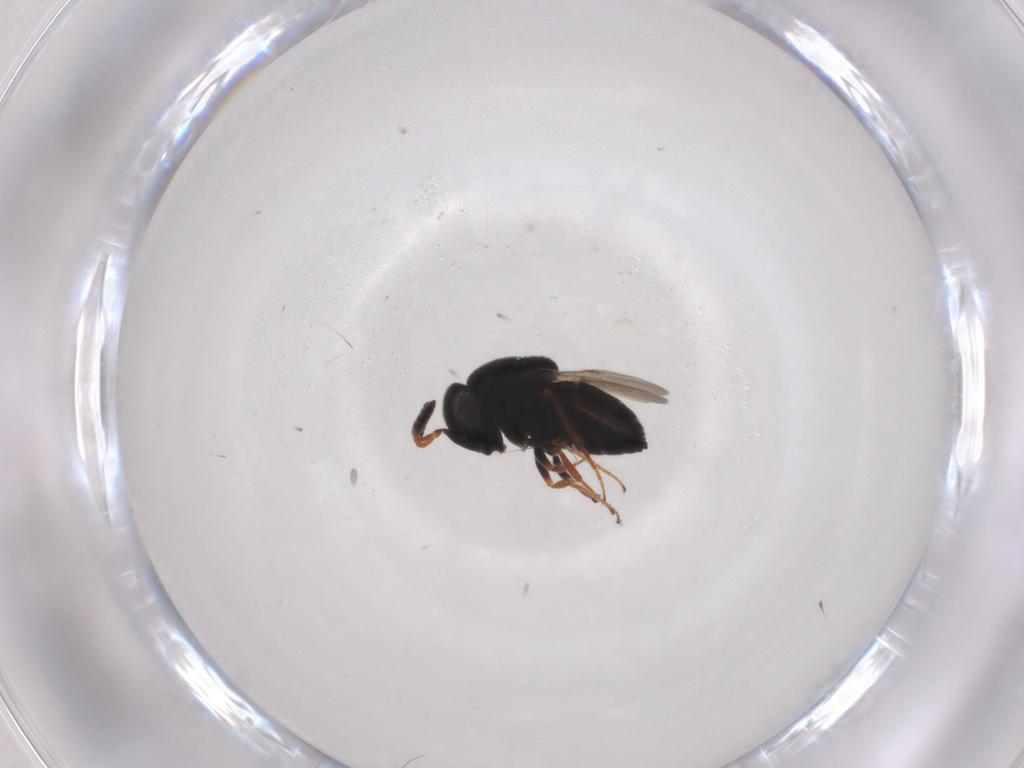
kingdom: Animalia
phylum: Arthropoda
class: Insecta
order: Hymenoptera
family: Scelionidae
